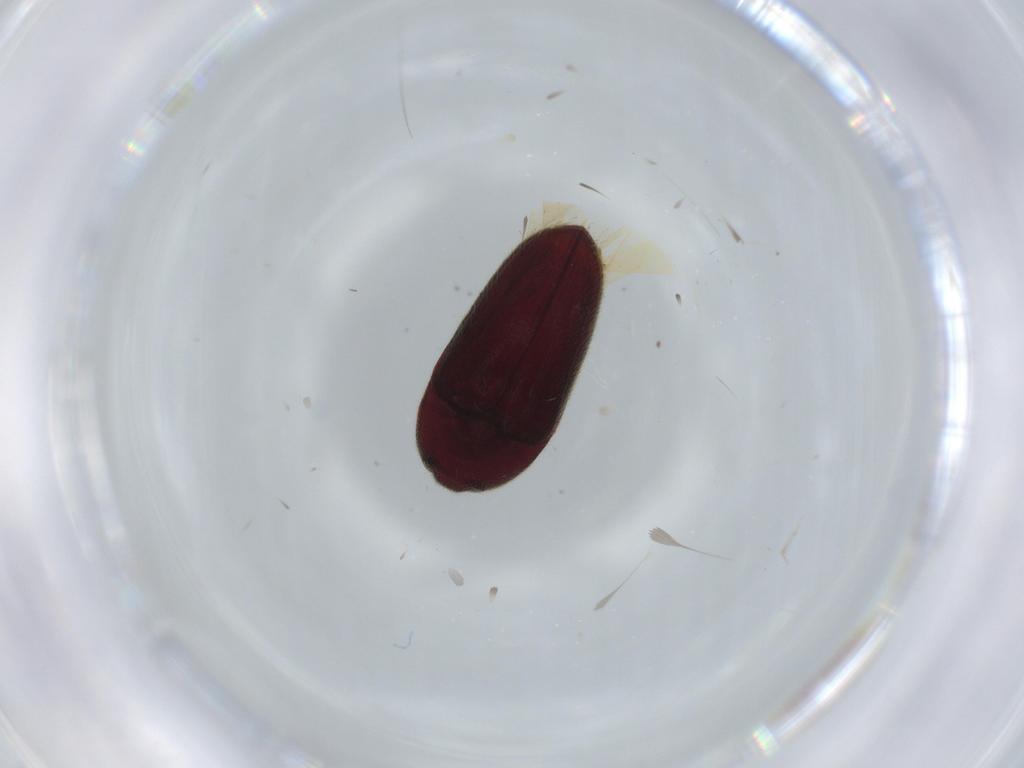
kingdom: Animalia
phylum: Arthropoda
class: Insecta
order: Coleoptera
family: Throscidae
